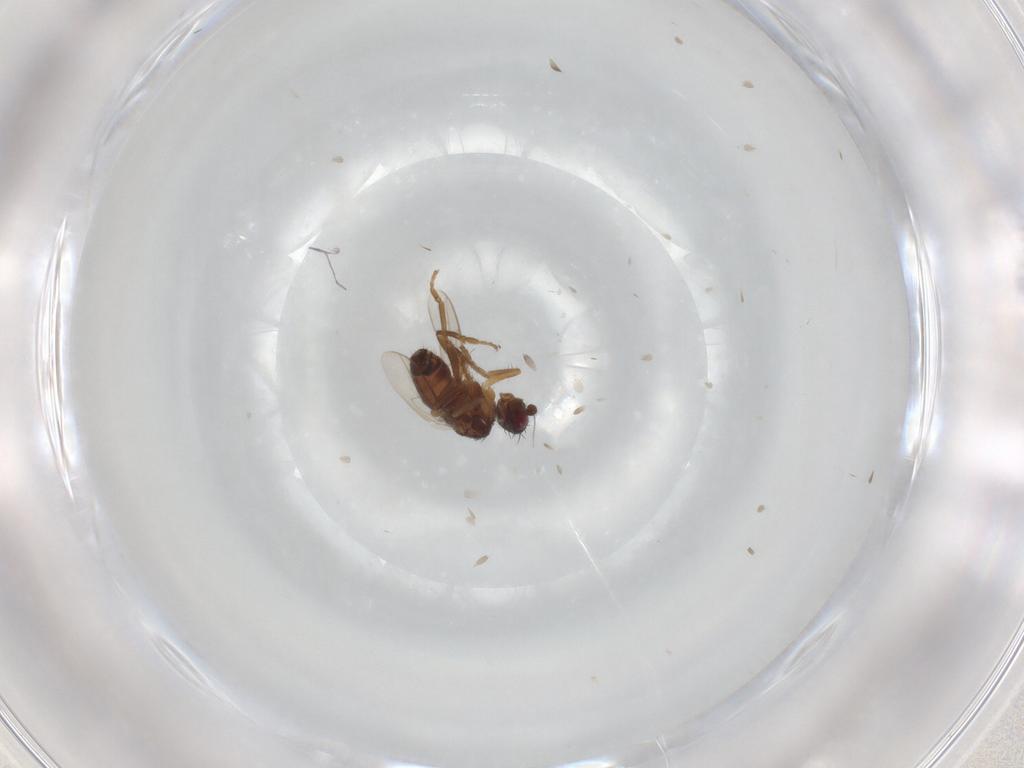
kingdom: Animalia
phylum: Arthropoda
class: Insecta
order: Diptera
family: Sphaeroceridae
